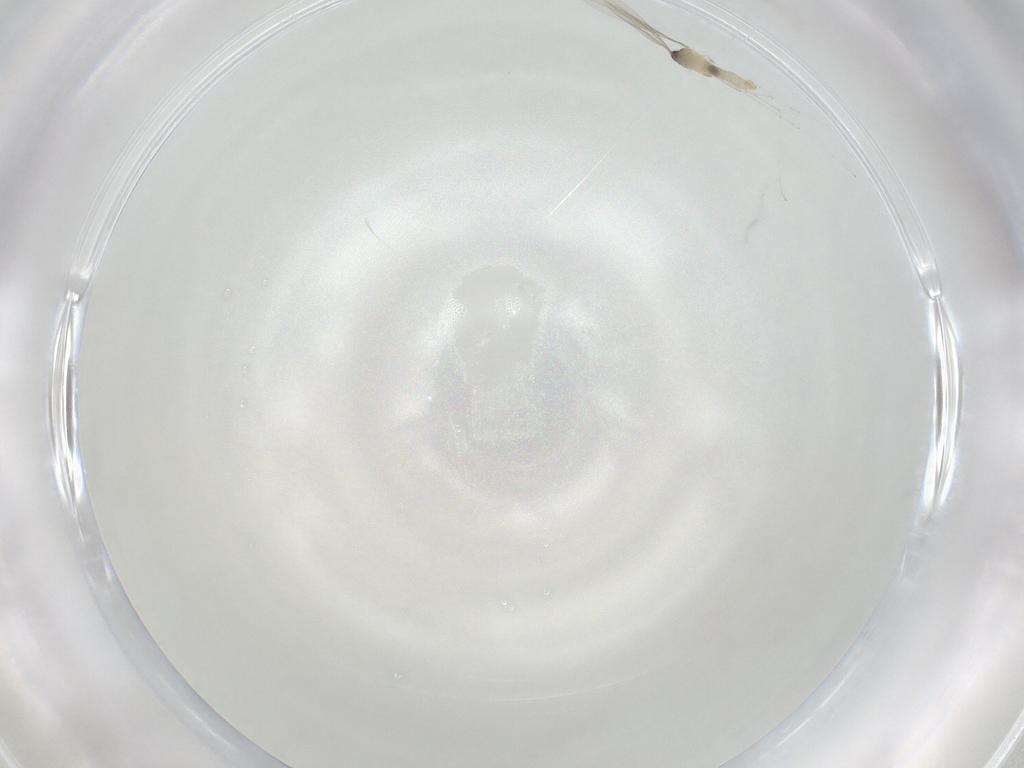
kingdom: Animalia
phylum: Arthropoda
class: Insecta
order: Diptera
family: Cecidomyiidae
